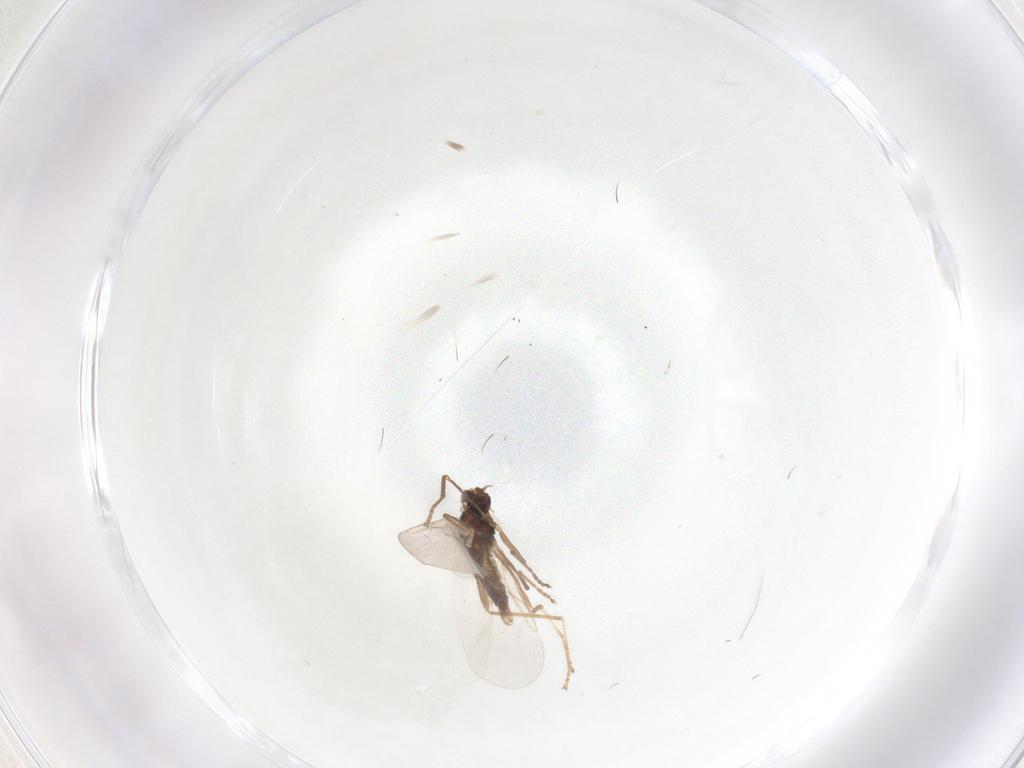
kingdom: Animalia
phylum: Arthropoda
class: Insecta
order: Diptera
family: Cecidomyiidae
